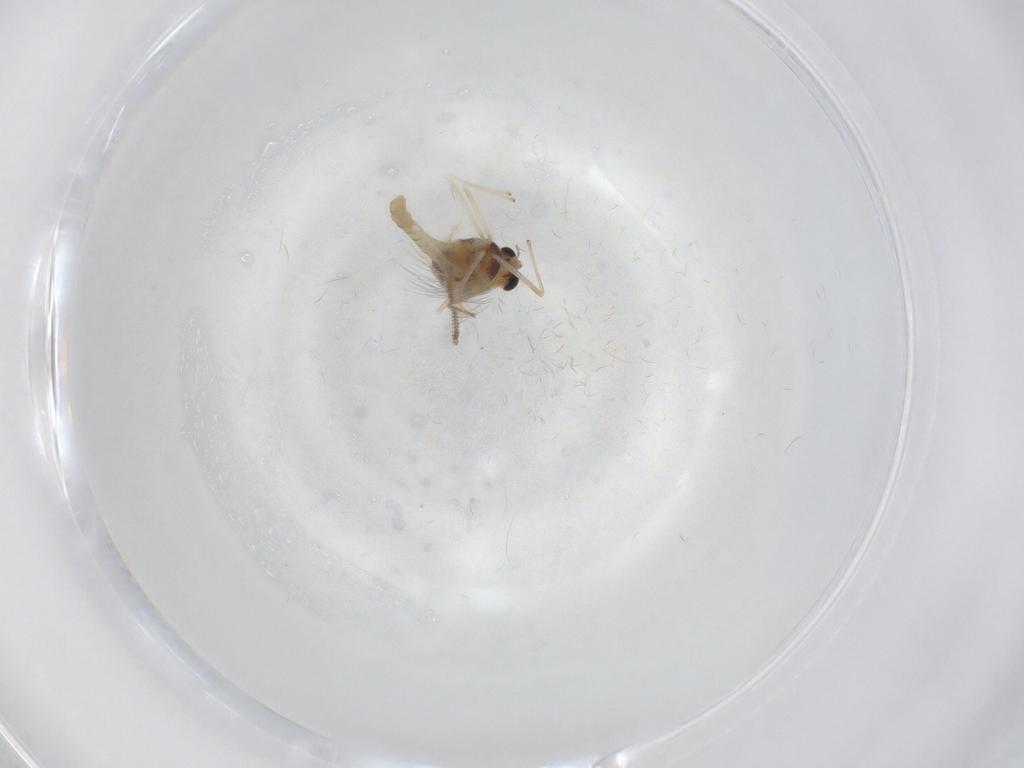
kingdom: Animalia
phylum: Arthropoda
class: Insecta
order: Diptera
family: Chironomidae
